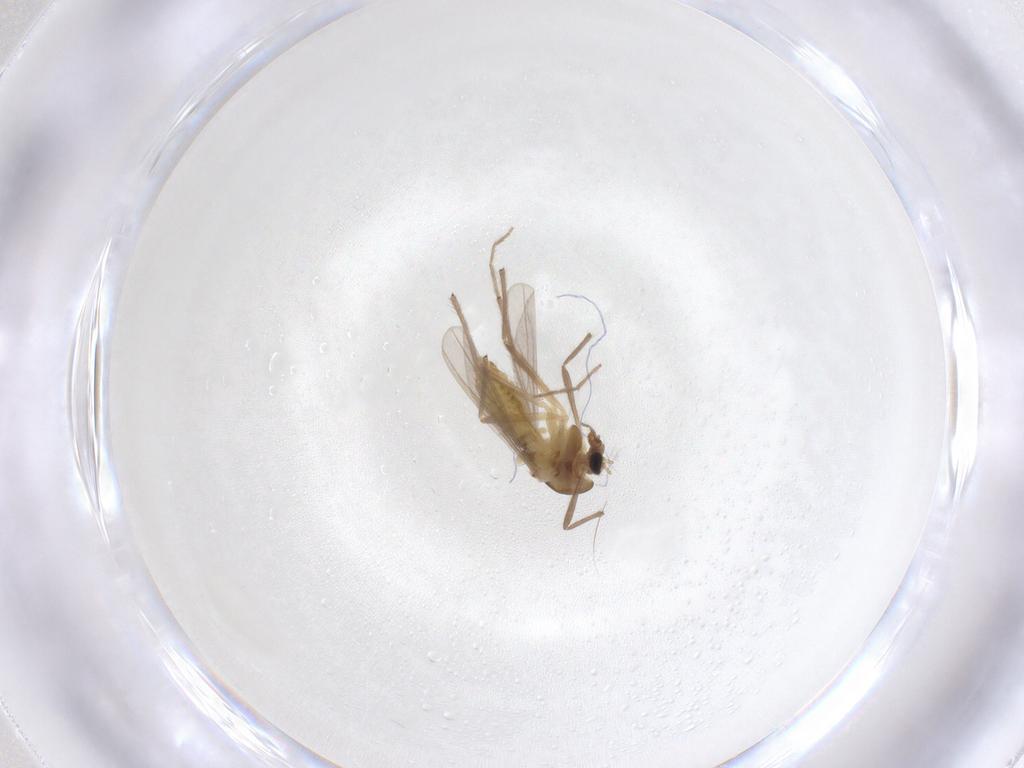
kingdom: Animalia
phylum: Arthropoda
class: Insecta
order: Diptera
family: Chironomidae
